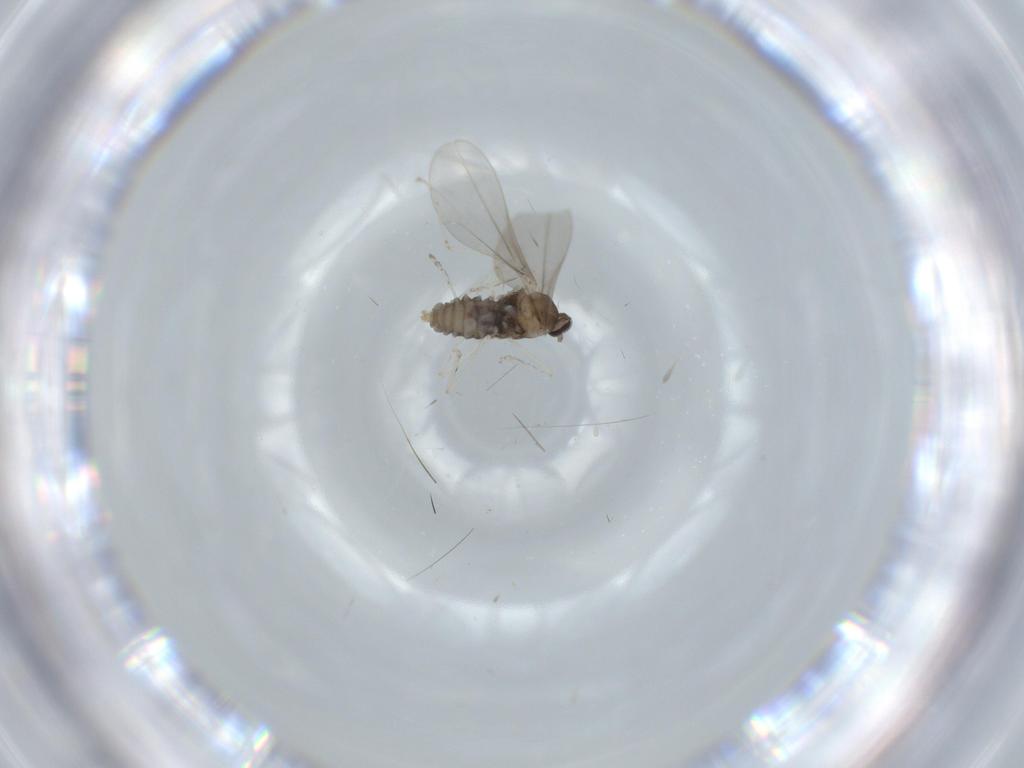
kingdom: Animalia
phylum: Arthropoda
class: Insecta
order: Diptera
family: Cecidomyiidae
